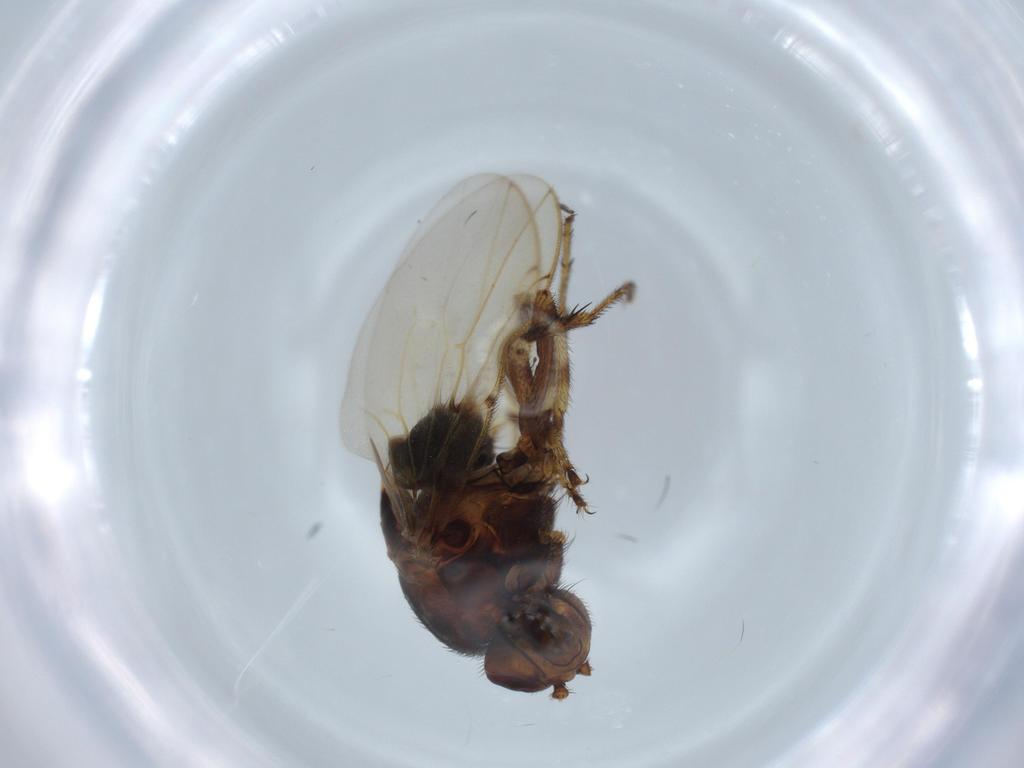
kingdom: Animalia
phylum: Arthropoda
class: Insecta
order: Diptera
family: Sphaeroceridae
